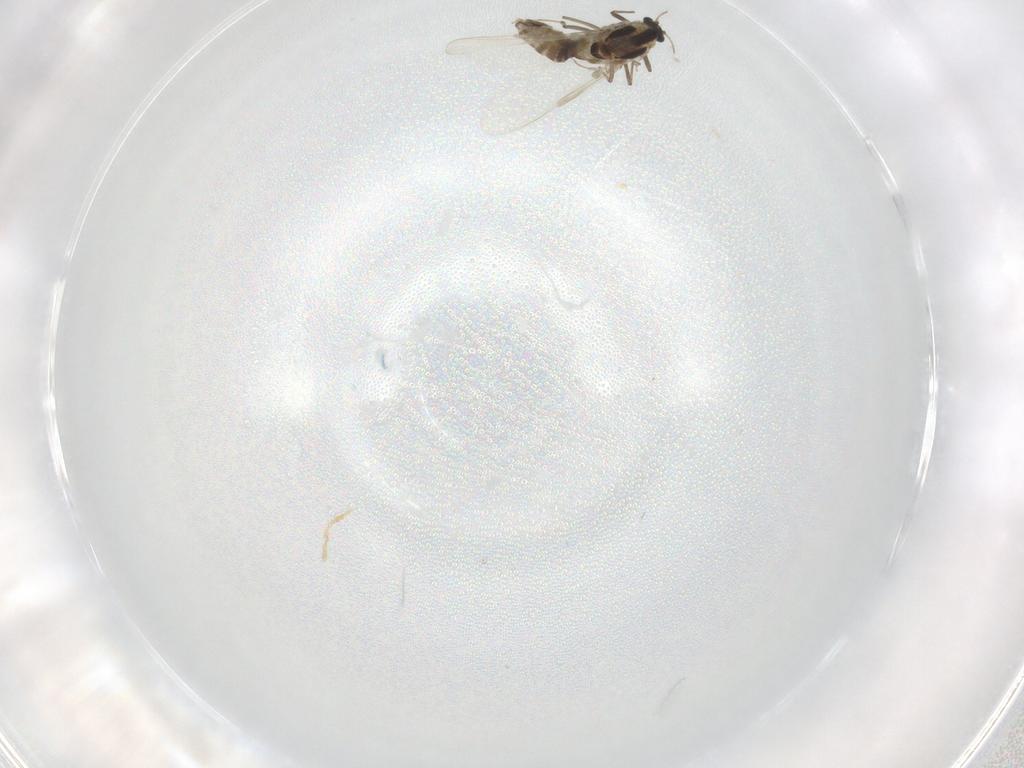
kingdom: Animalia
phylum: Arthropoda
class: Insecta
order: Diptera
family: Chironomidae
